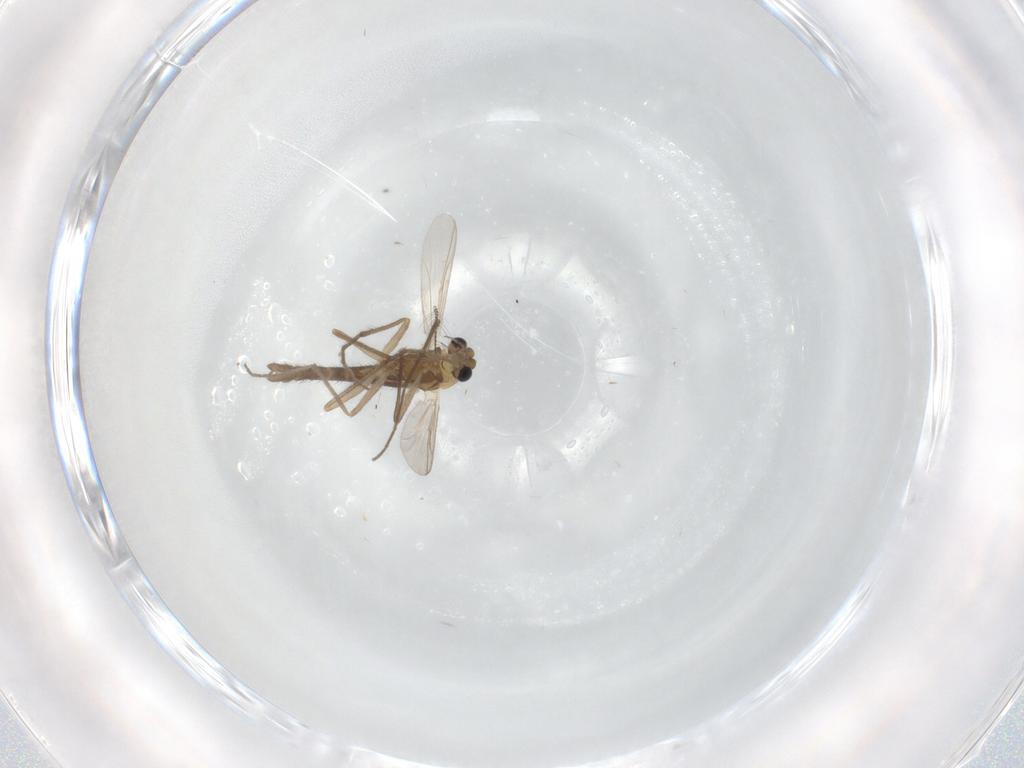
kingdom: Animalia
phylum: Arthropoda
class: Insecta
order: Diptera
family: Chironomidae
